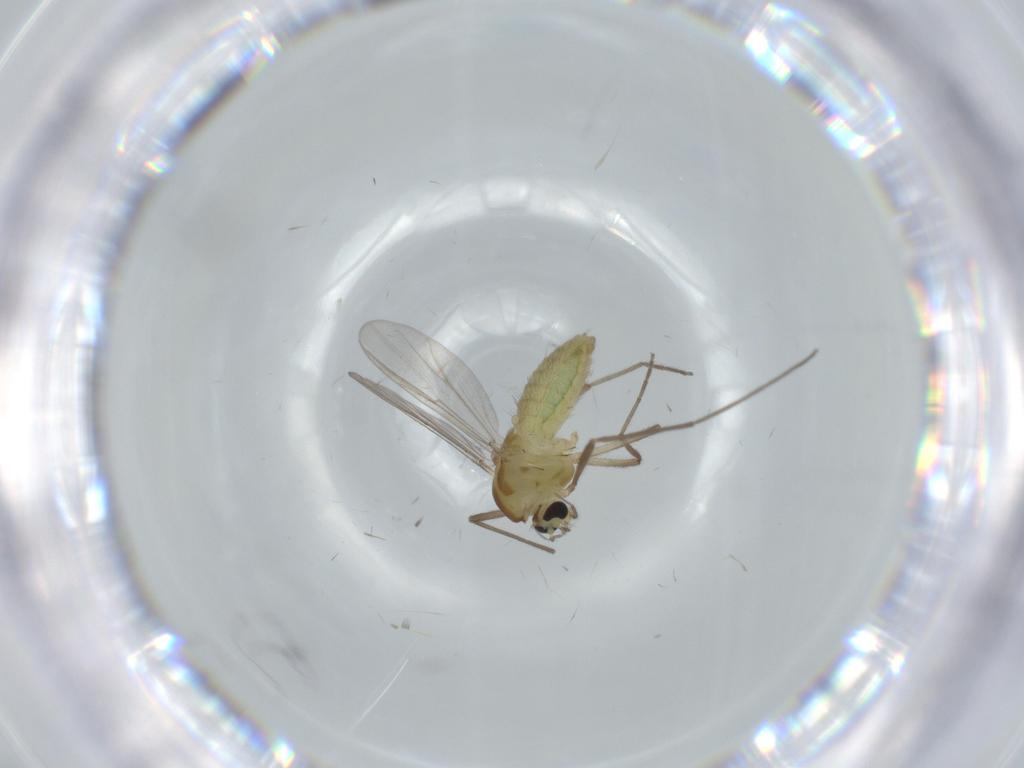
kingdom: Animalia
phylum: Arthropoda
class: Insecta
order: Diptera
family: Chironomidae
